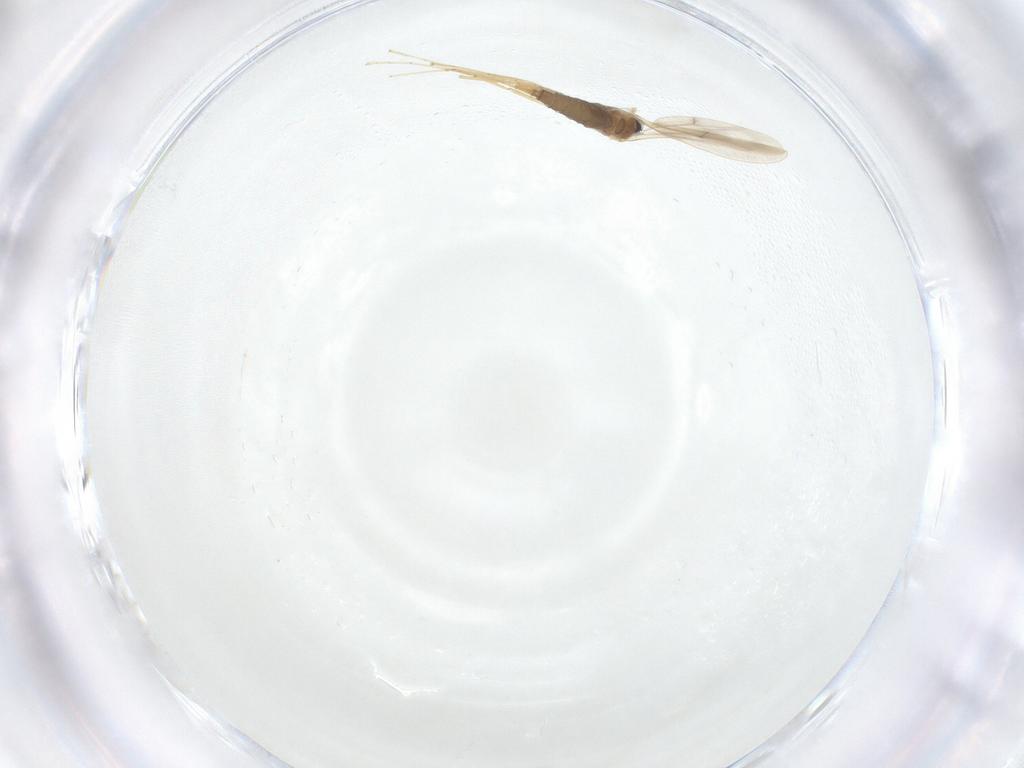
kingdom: Animalia
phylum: Arthropoda
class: Insecta
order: Diptera
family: Cecidomyiidae
